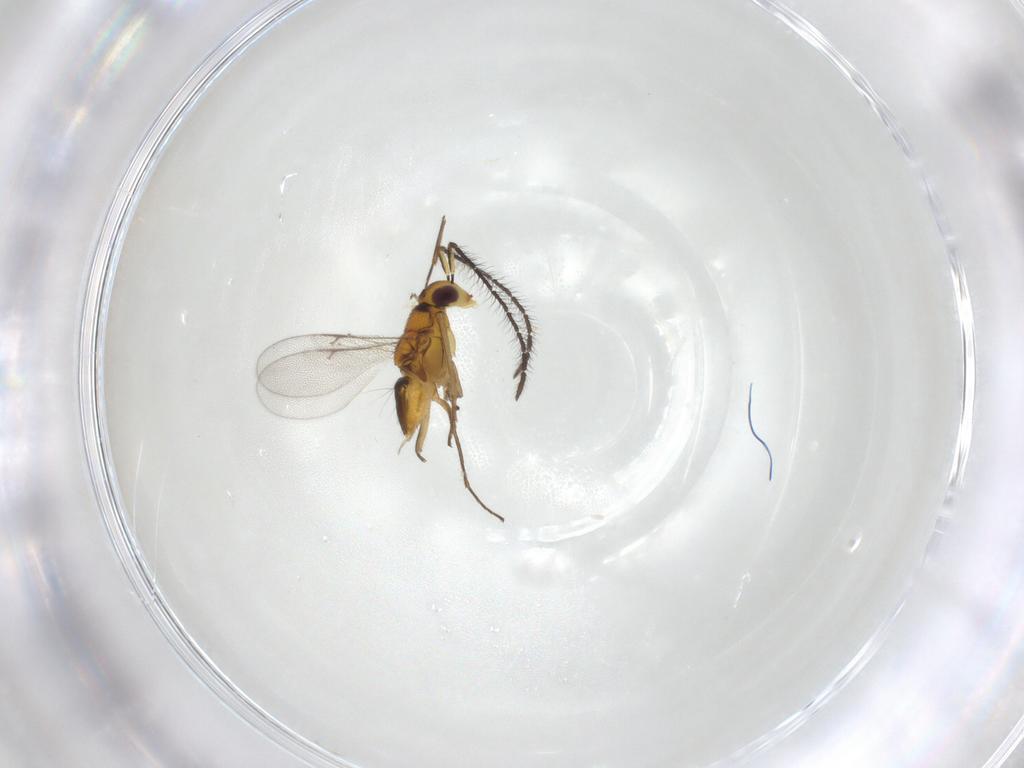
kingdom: Animalia
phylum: Arthropoda
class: Insecta
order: Hymenoptera
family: Encyrtidae
